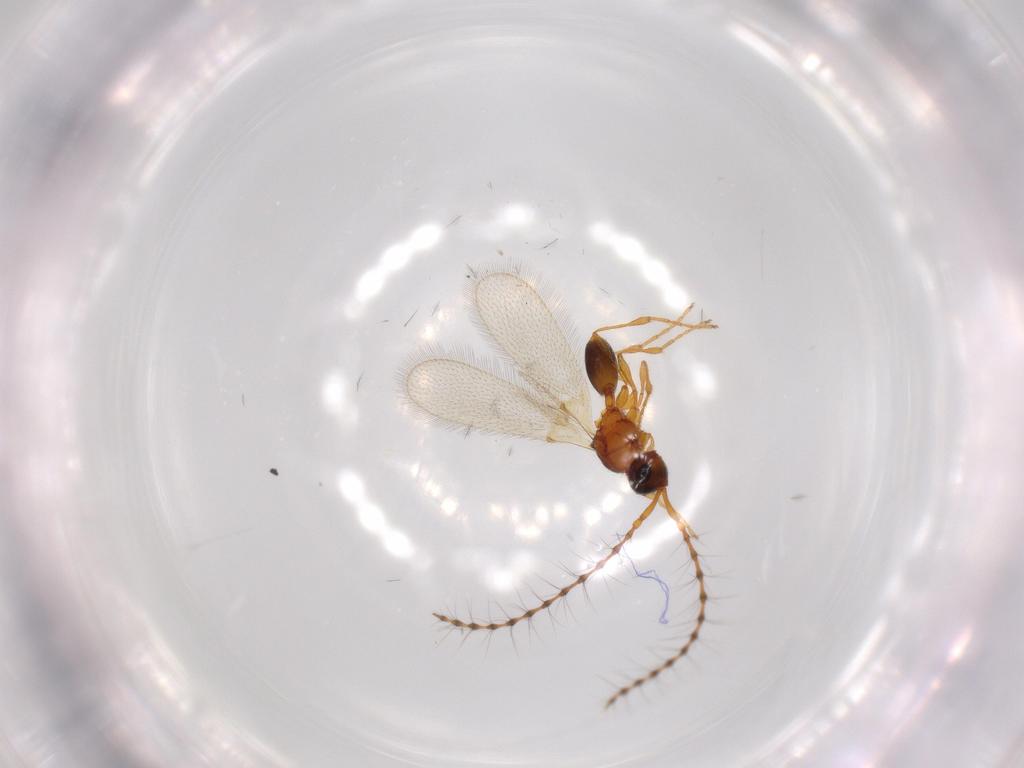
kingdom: Animalia
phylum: Arthropoda
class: Insecta
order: Hymenoptera
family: Diapriidae
